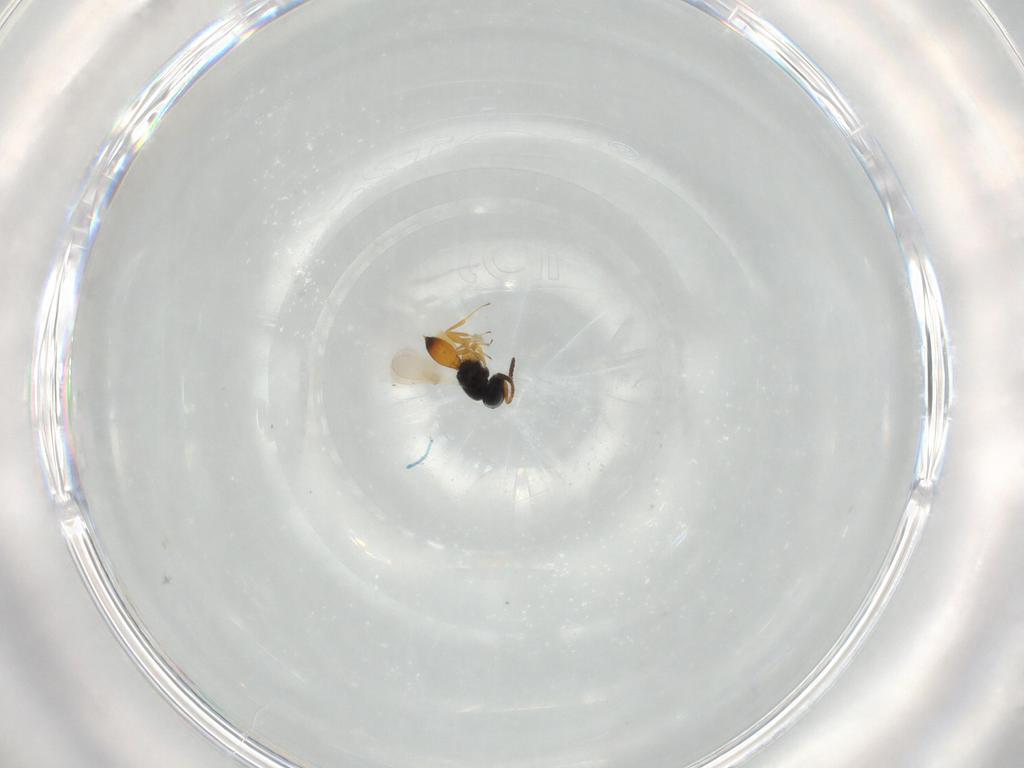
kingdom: Animalia
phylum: Arthropoda
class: Insecta
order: Hymenoptera
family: Scelionidae
